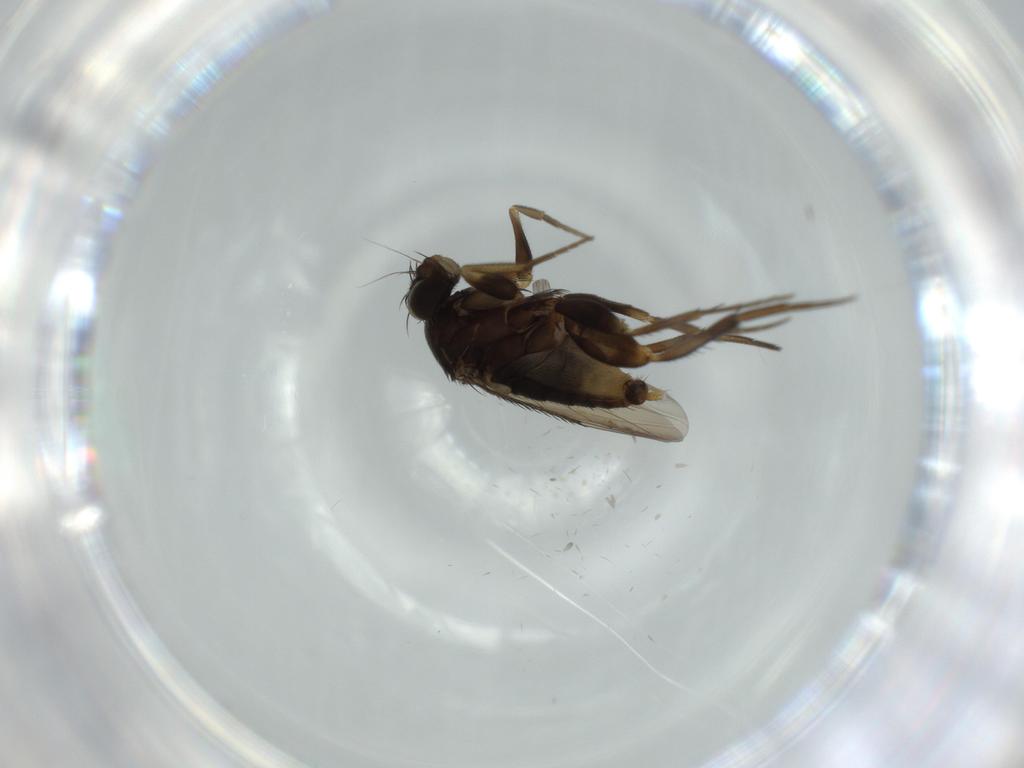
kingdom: Animalia
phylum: Arthropoda
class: Insecta
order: Diptera
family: Phoridae
